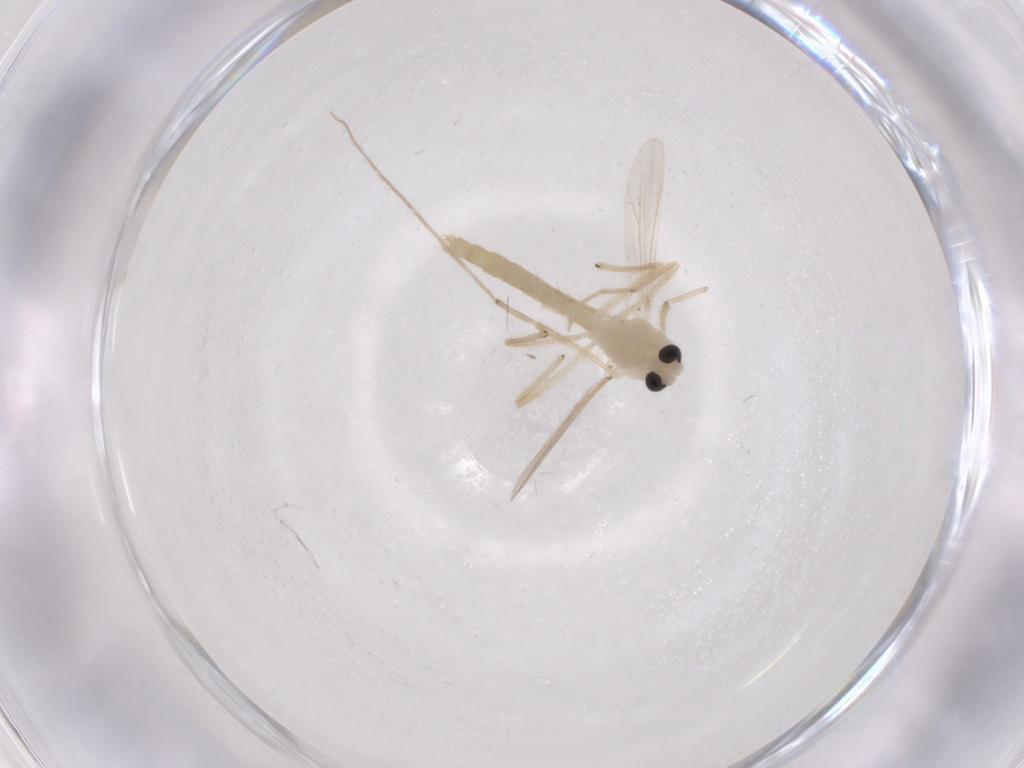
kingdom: Animalia
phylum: Arthropoda
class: Insecta
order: Diptera
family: Chironomidae
